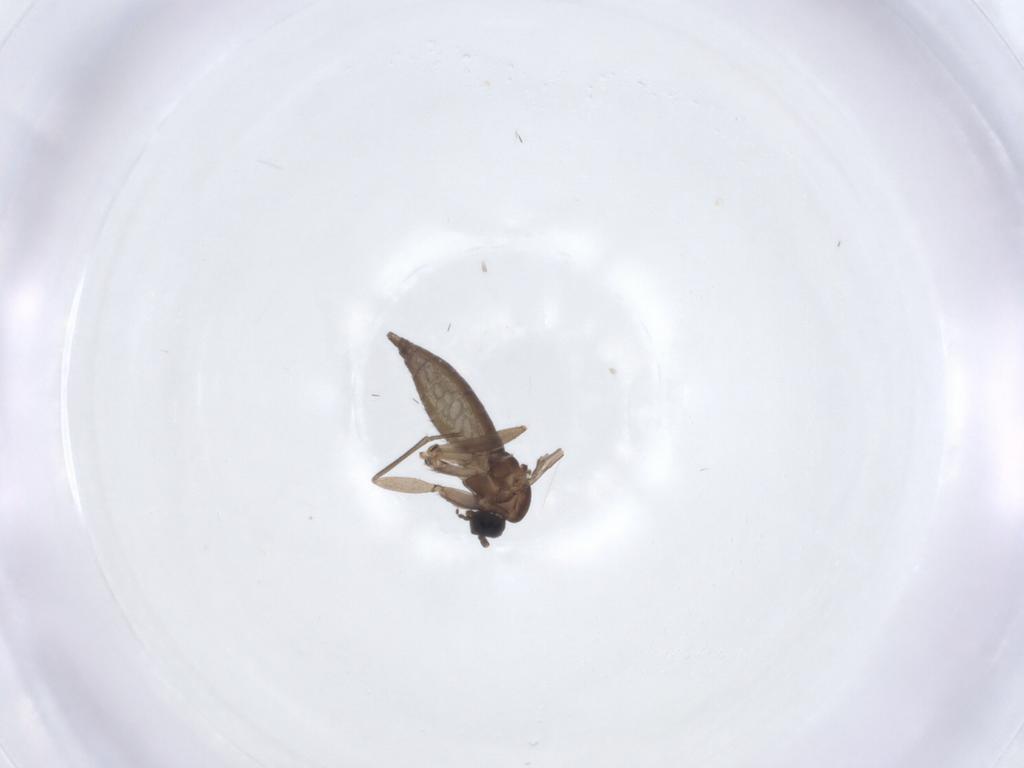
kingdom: Animalia
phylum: Arthropoda
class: Insecta
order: Diptera
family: Sciaridae
